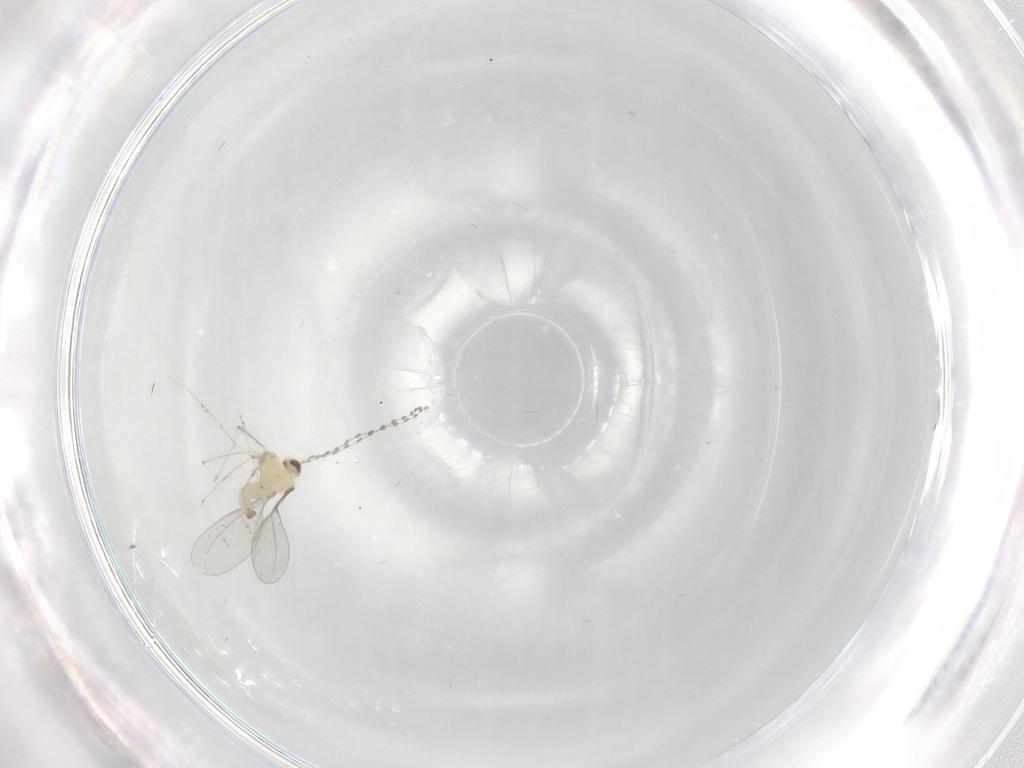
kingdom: Animalia
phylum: Arthropoda
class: Insecta
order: Diptera
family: Cecidomyiidae
